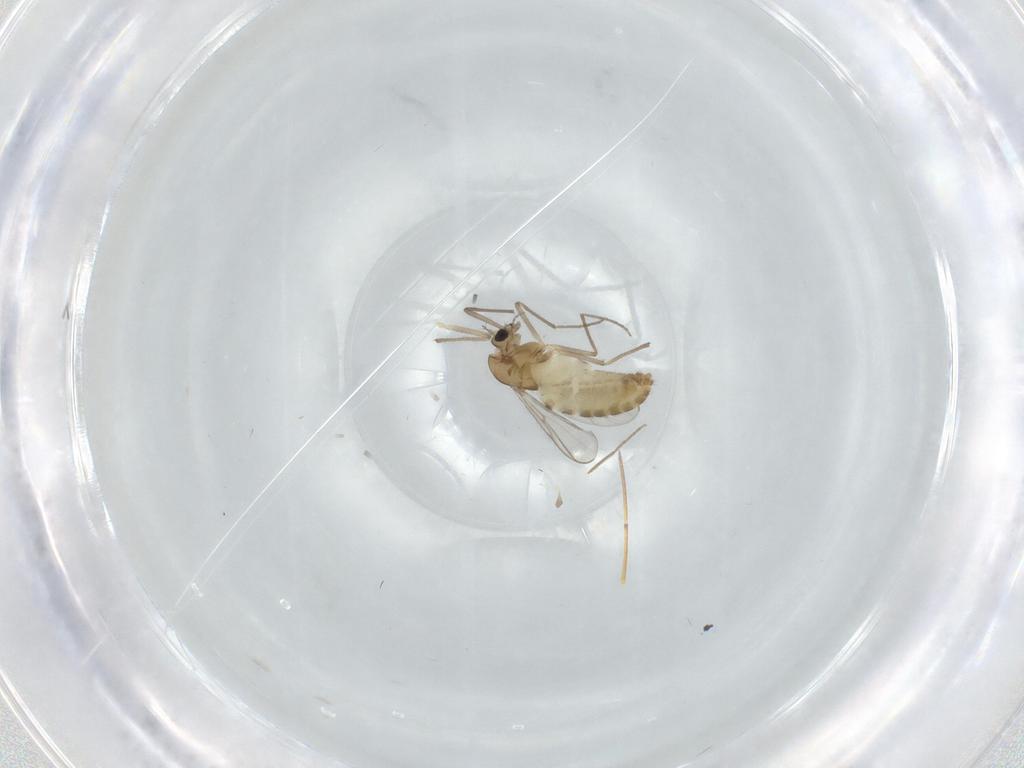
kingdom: Animalia
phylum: Arthropoda
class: Insecta
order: Diptera
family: Chironomidae
